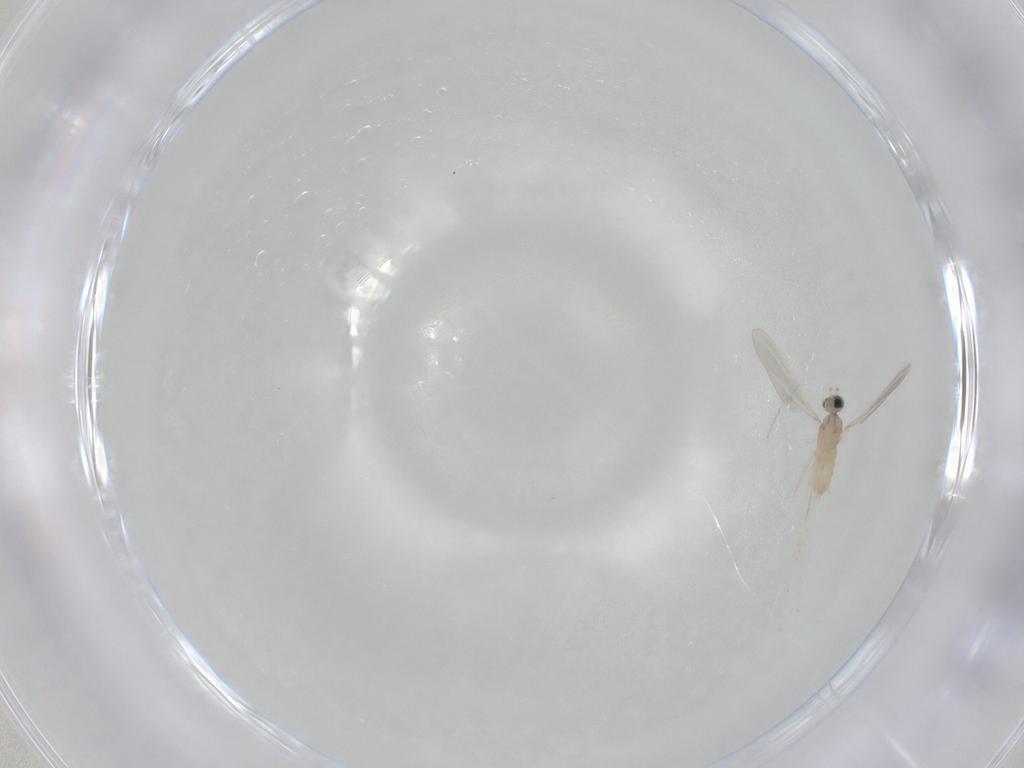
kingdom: Animalia
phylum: Arthropoda
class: Insecta
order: Diptera
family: Cecidomyiidae
